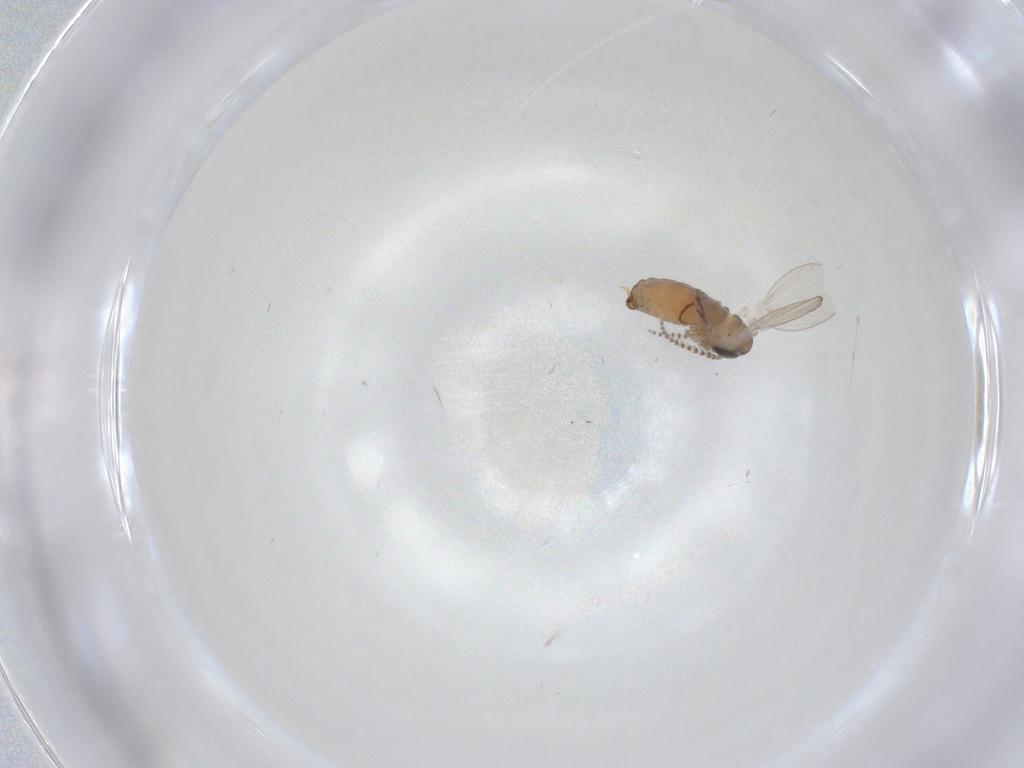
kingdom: Animalia
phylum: Arthropoda
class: Insecta
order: Diptera
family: Psychodidae
